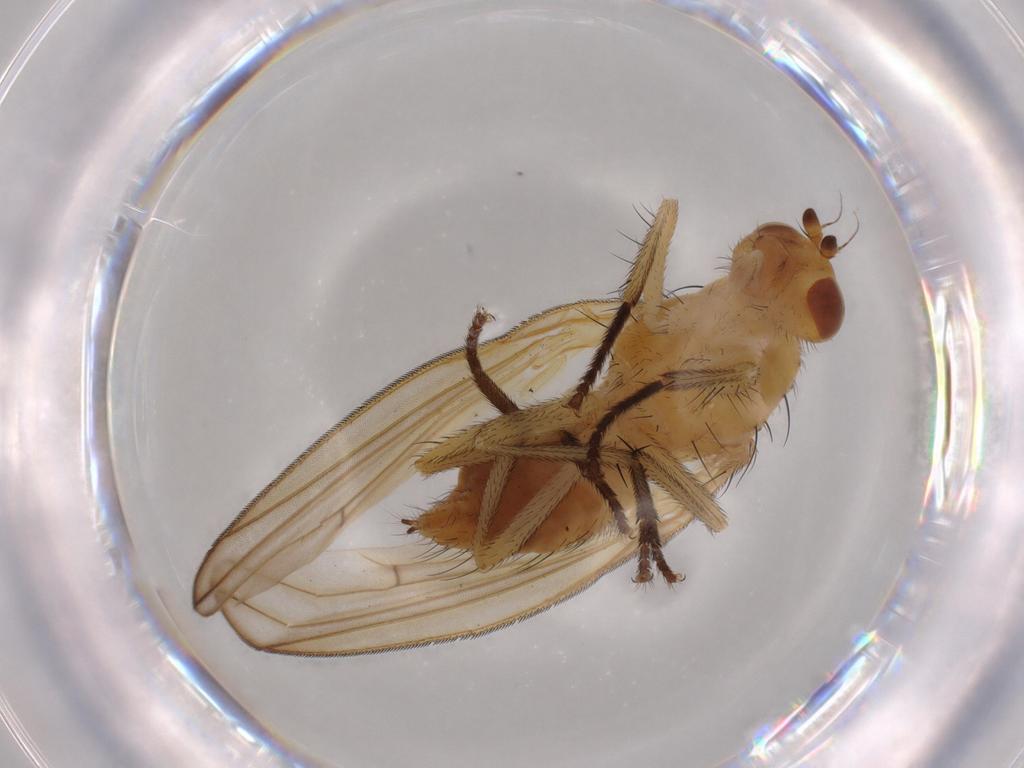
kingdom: Animalia
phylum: Arthropoda
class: Insecta
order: Diptera
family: Lauxaniidae
